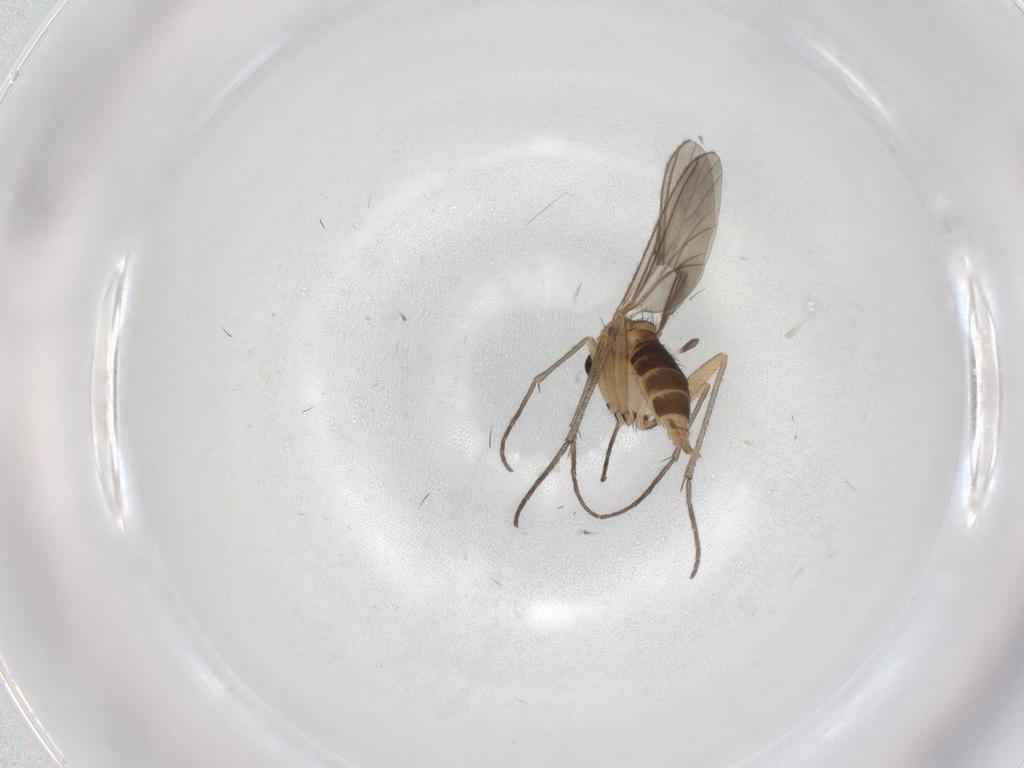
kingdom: Animalia
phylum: Arthropoda
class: Insecta
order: Diptera
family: Sciaridae
